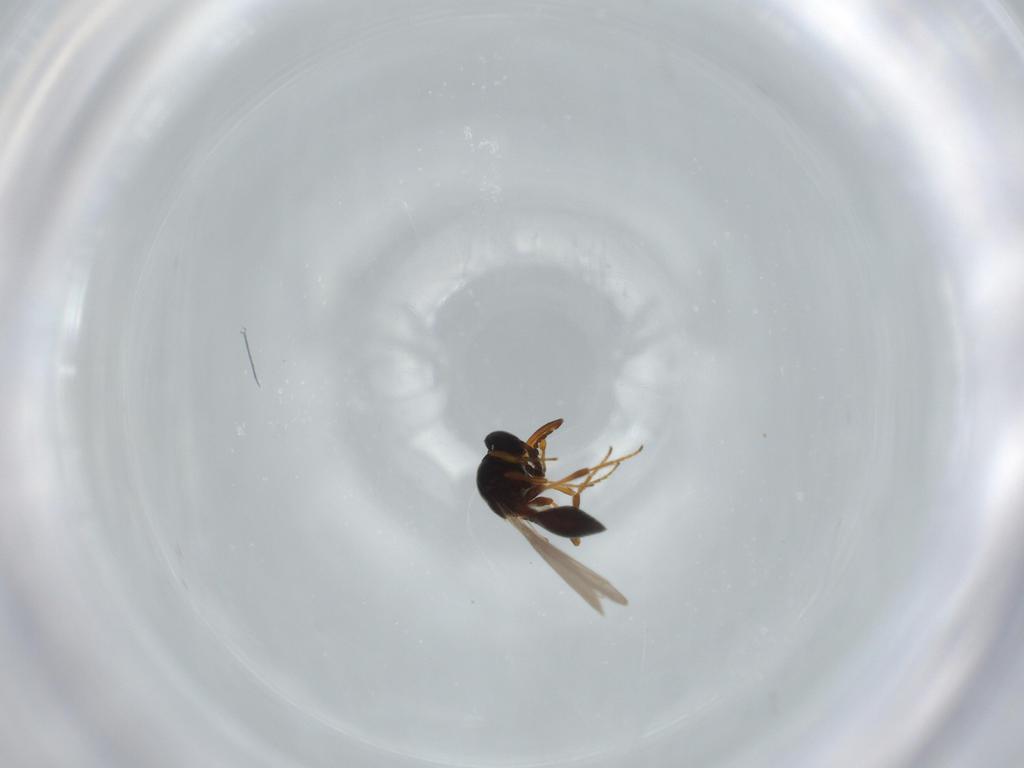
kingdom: Animalia
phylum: Arthropoda
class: Insecta
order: Hymenoptera
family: Platygastridae
